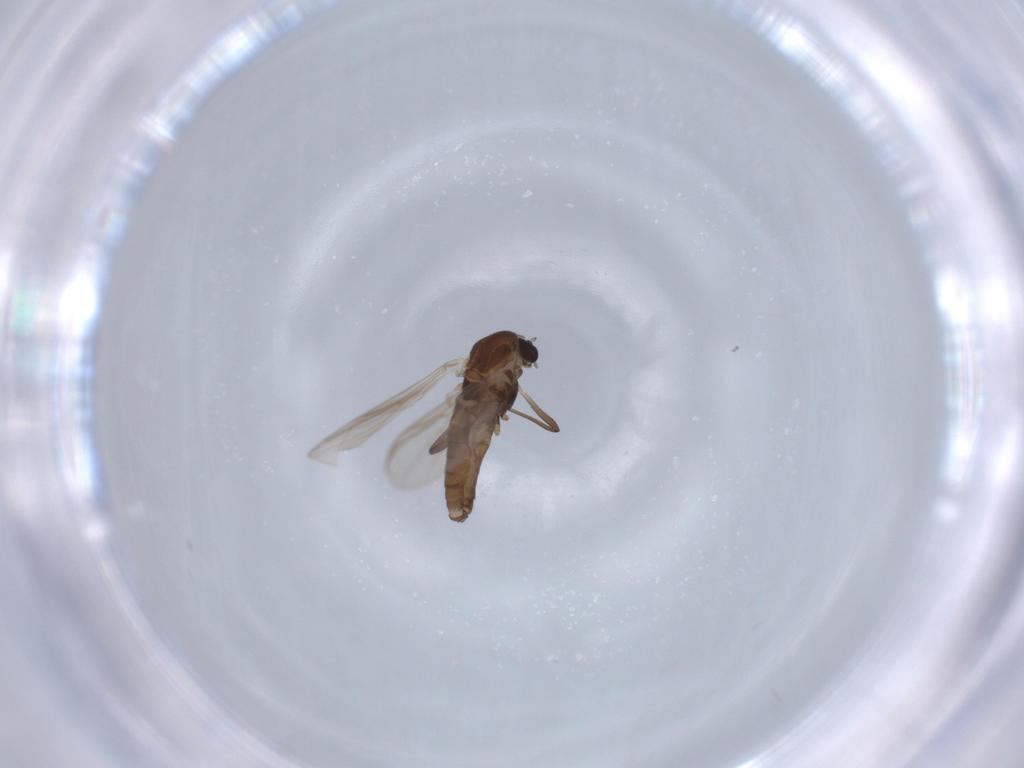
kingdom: Animalia
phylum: Arthropoda
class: Insecta
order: Diptera
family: Chironomidae
